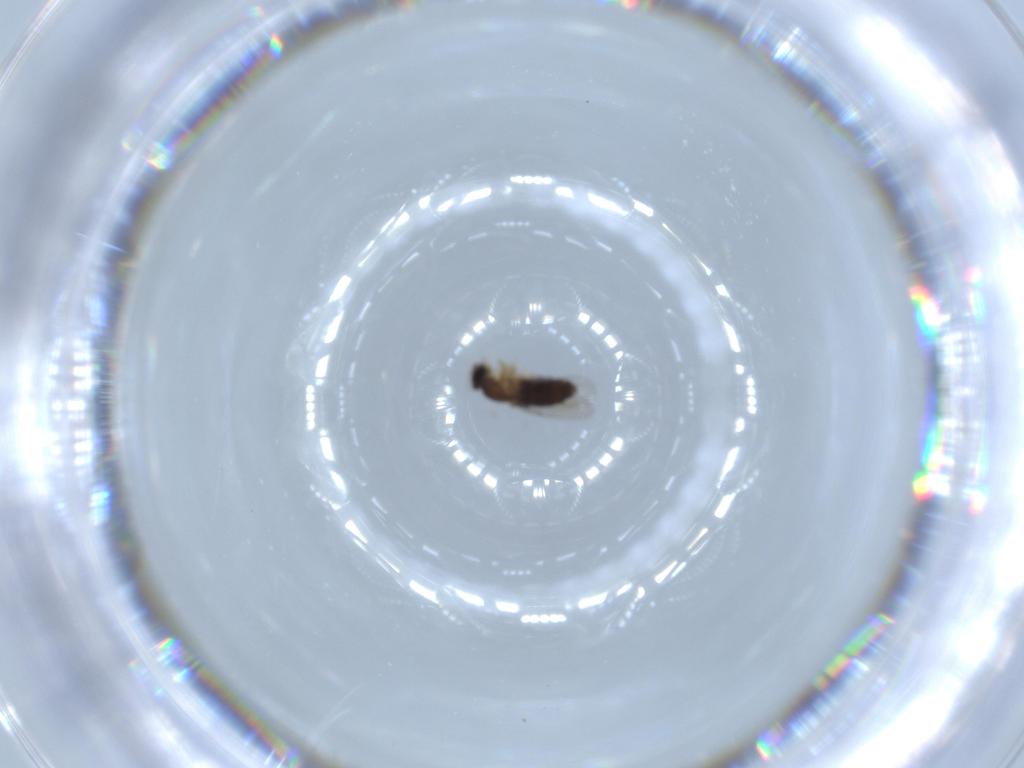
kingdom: Animalia
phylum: Arthropoda
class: Insecta
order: Diptera
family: Phoridae
